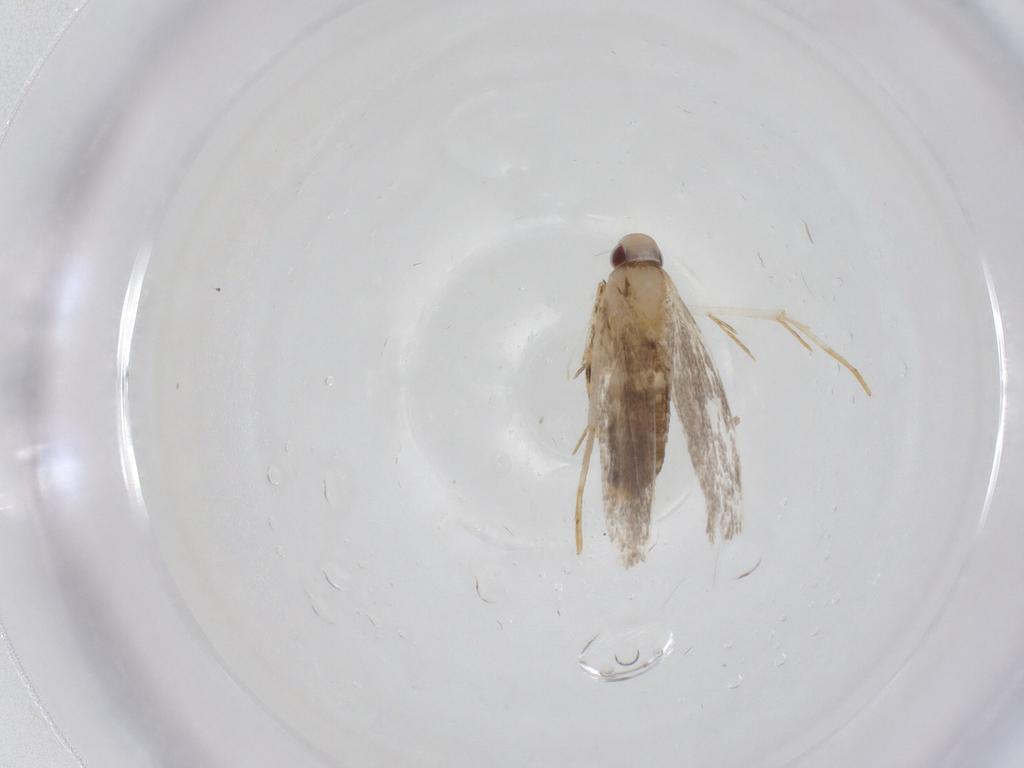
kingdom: Animalia
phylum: Arthropoda
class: Insecta
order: Lepidoptera
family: Plutellidae
